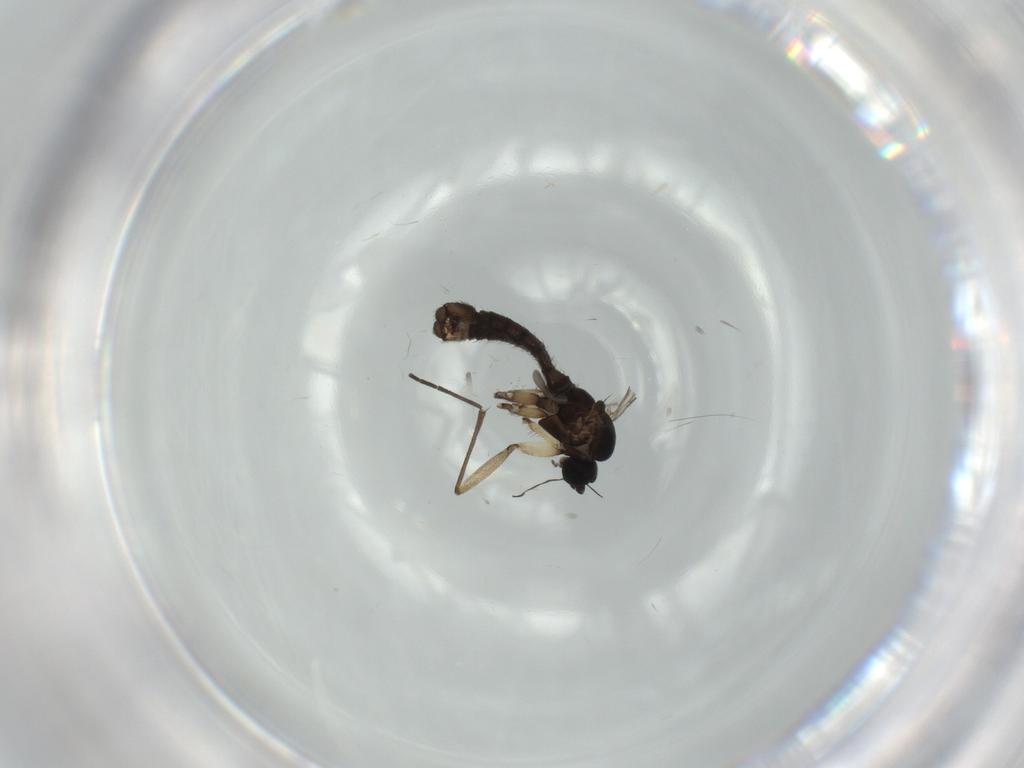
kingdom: Animalia
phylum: Arthropoda
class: Insecta
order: Diptera
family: Sciaridae
